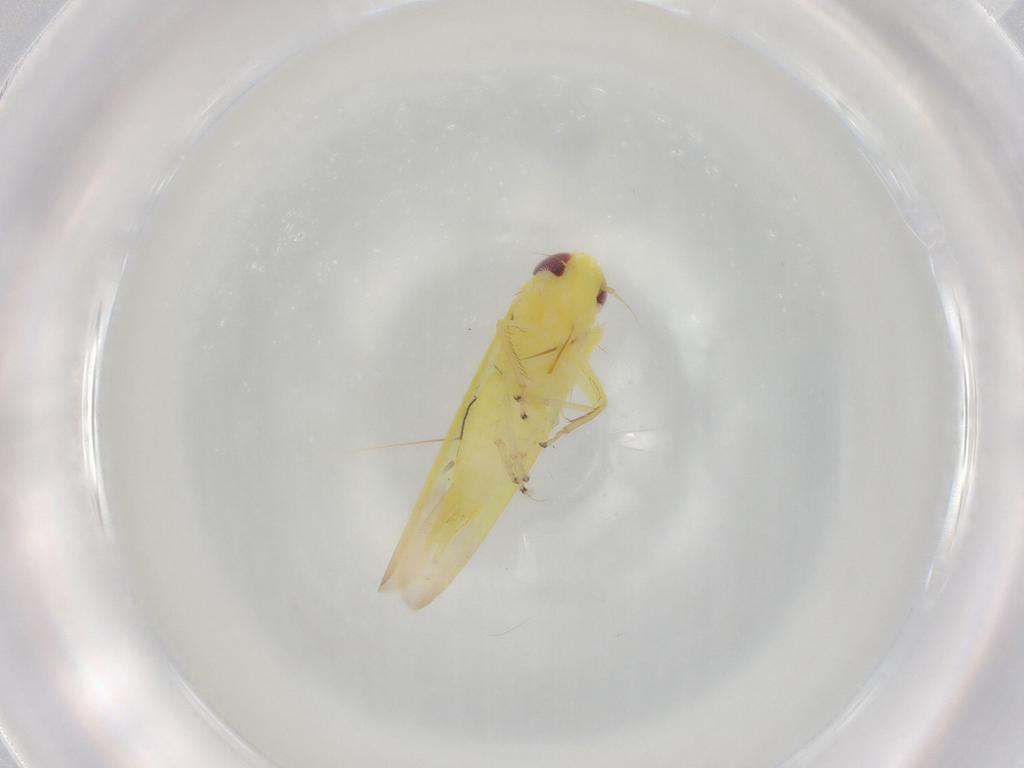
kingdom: Animalia
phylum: Arthropoda
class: Insecta
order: Hemiptera
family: Cicadellidae
